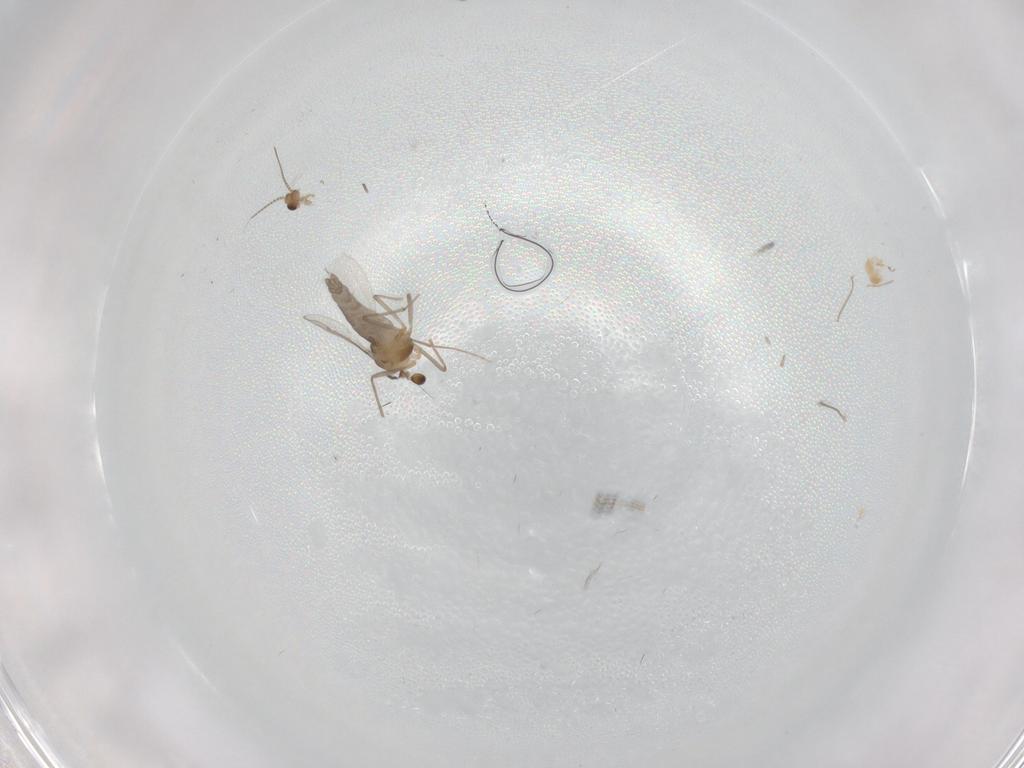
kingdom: Animalia
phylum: Arthropoda
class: Insecta
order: Diptera
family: Chironomidae
